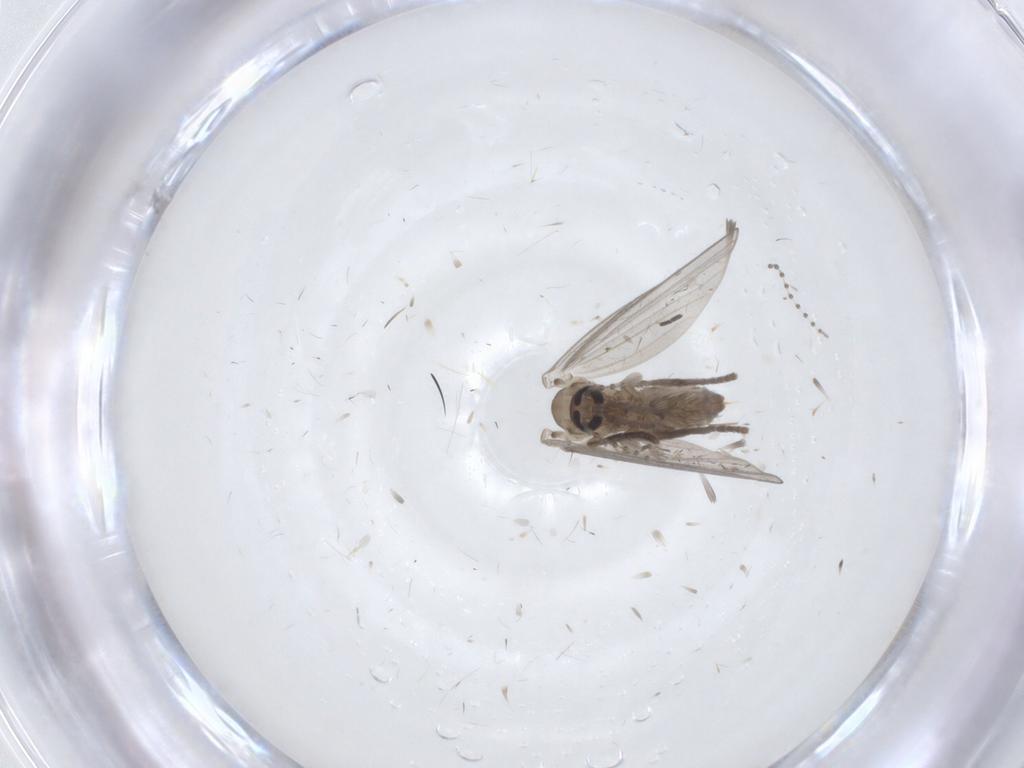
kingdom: Animalia
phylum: Arthropoda
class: Insecta
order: Diptera
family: Psychodidae
